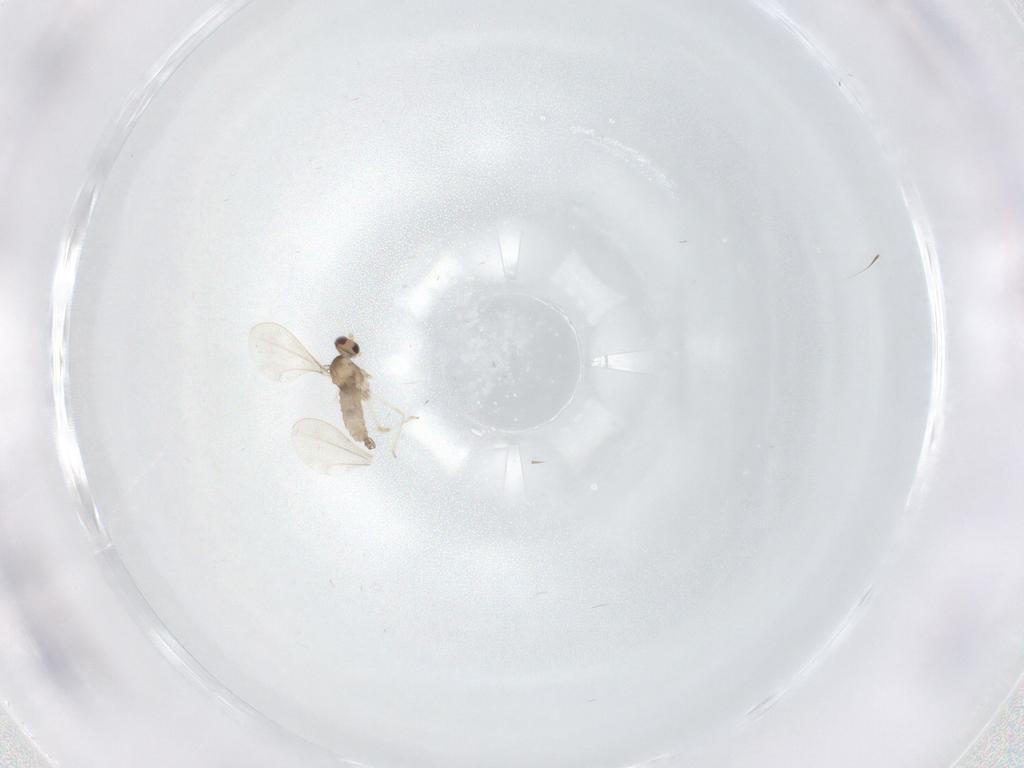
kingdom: Animalia
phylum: Arthropoda
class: Insecta
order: Diptera
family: Cecidomyiidae
